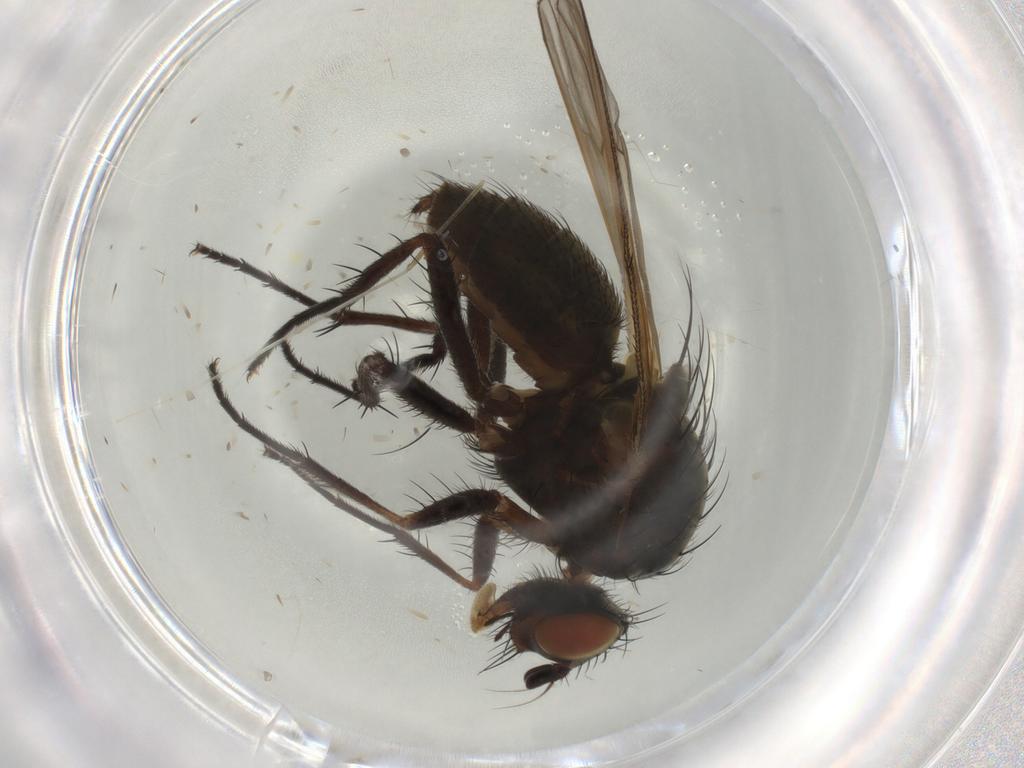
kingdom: Animalia
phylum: Arthropoda
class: Insecta
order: Diptera
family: Anthomyiidae
